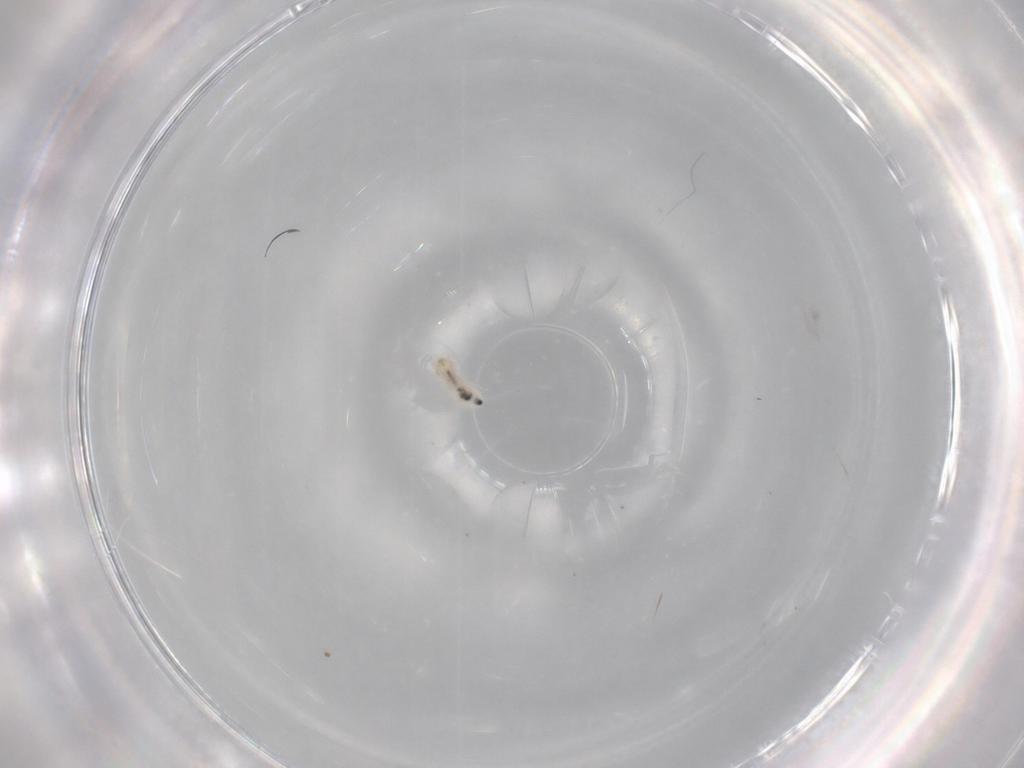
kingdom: Animalia
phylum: Arthropoda
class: Insecta
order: Psocodea
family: Liposcelididae
